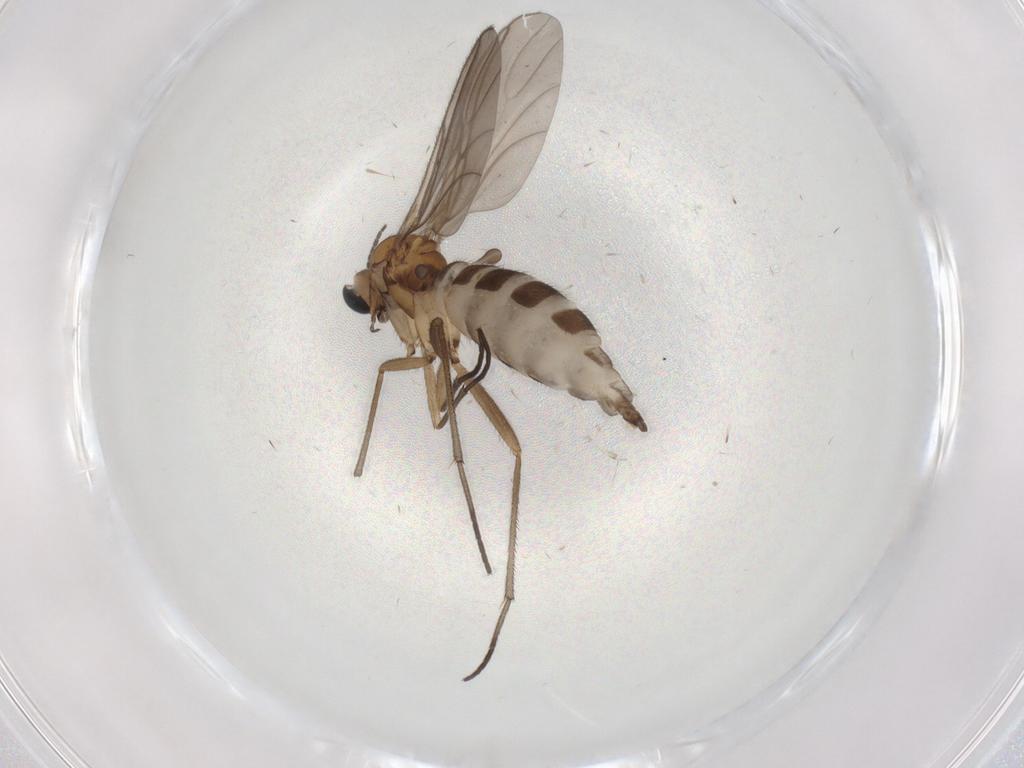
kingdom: Animalia
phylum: Arthropoda
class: Insecta
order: Diptera
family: Sciaridae
